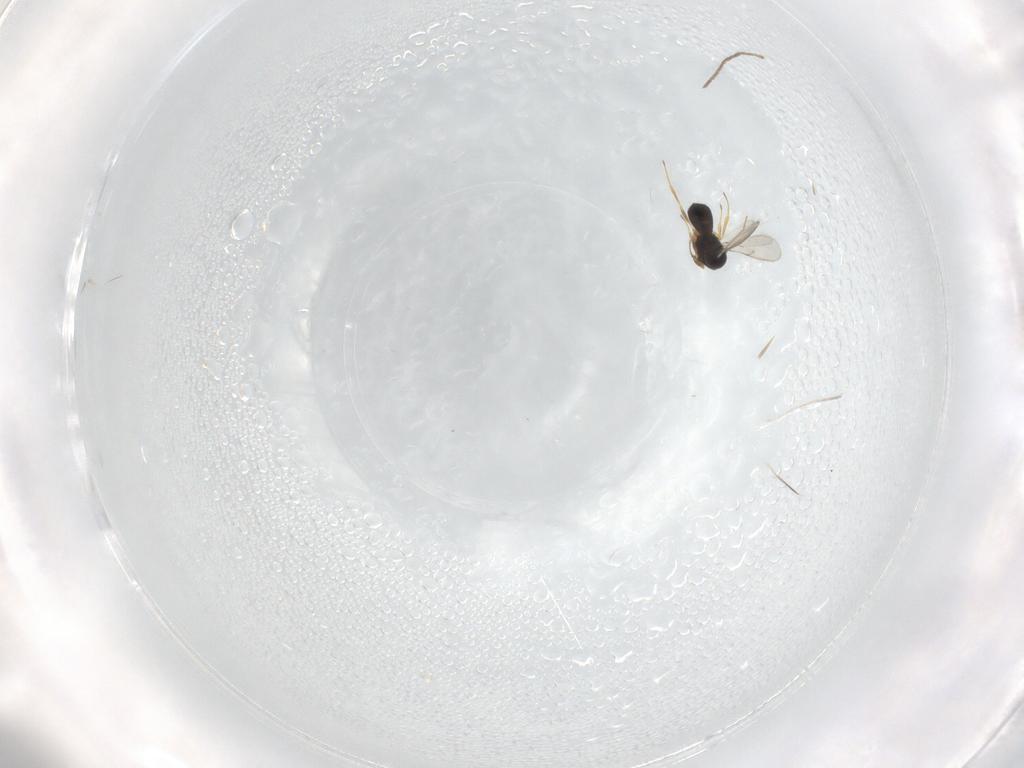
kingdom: Animalia
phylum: Arthropoda
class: Insecta
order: Hymenoptera
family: Scelionidae
